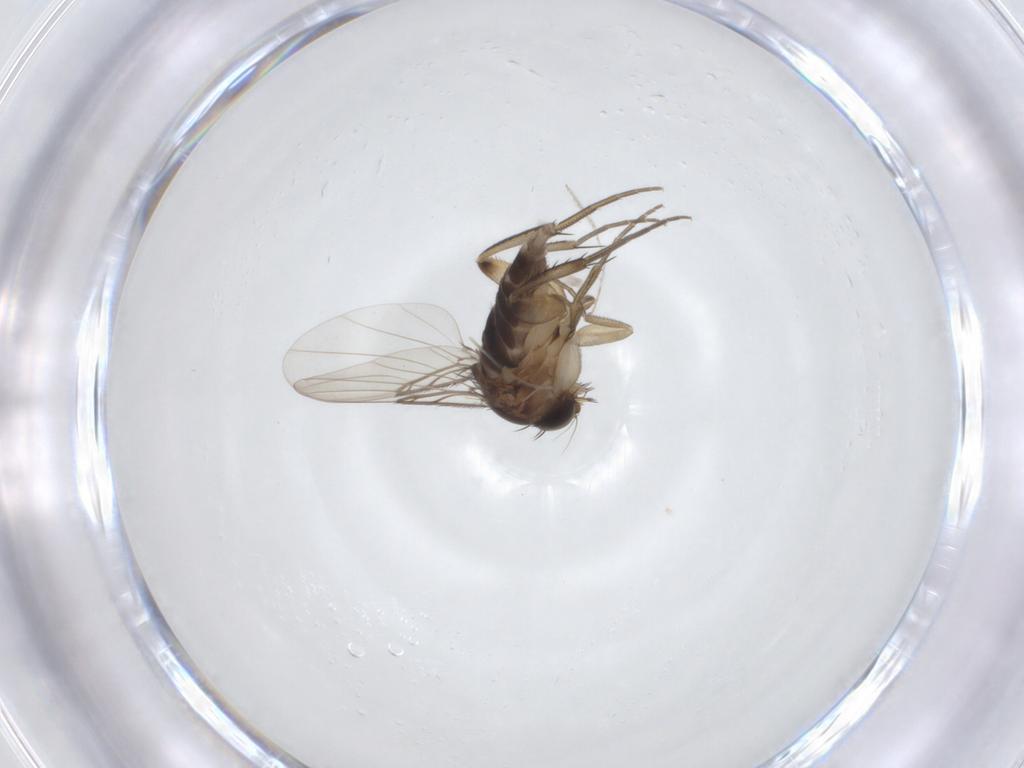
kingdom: Animalia
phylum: Arthropoda
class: Insecta
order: Diptera
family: Phoridae
